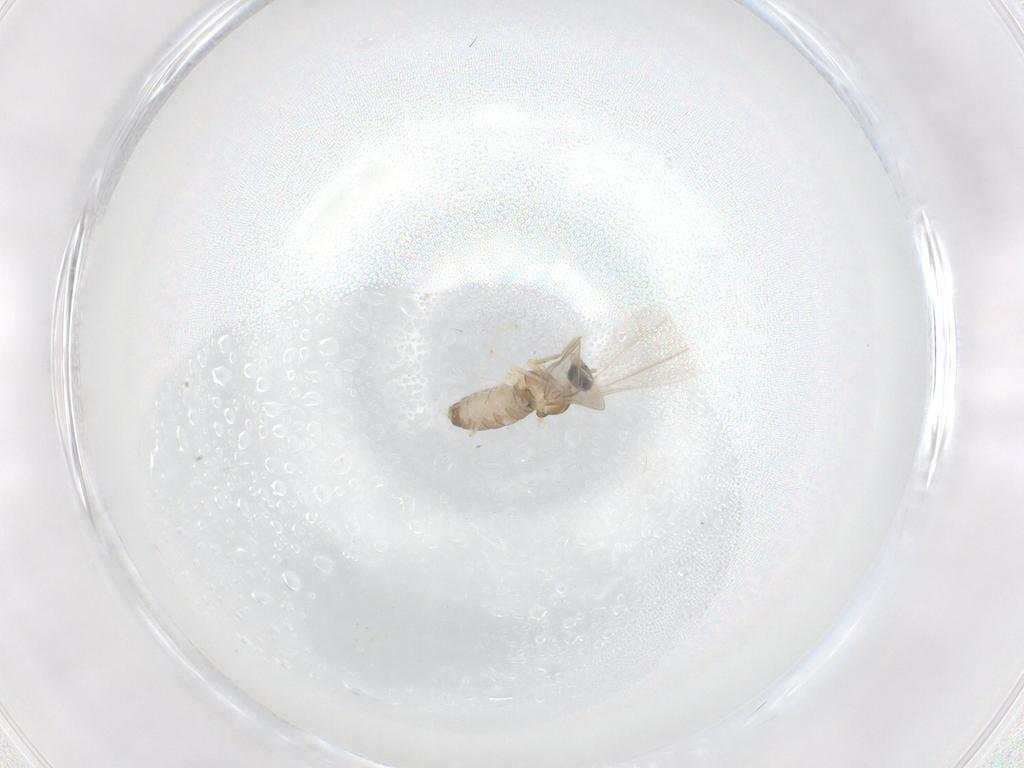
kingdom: Animalia
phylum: Arthropoda
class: Insecta
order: Diptera
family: Cecidomyiidae
